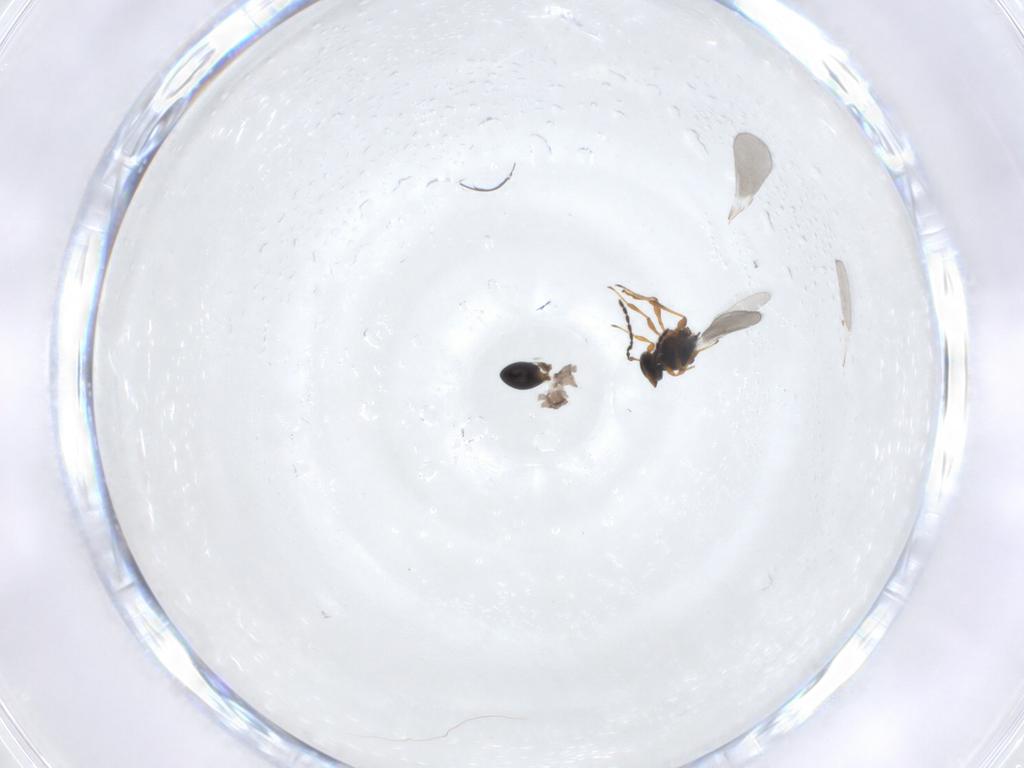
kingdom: Animalia
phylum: Arthropoda
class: Insecta
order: Hymenoptera
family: Platygastridae
